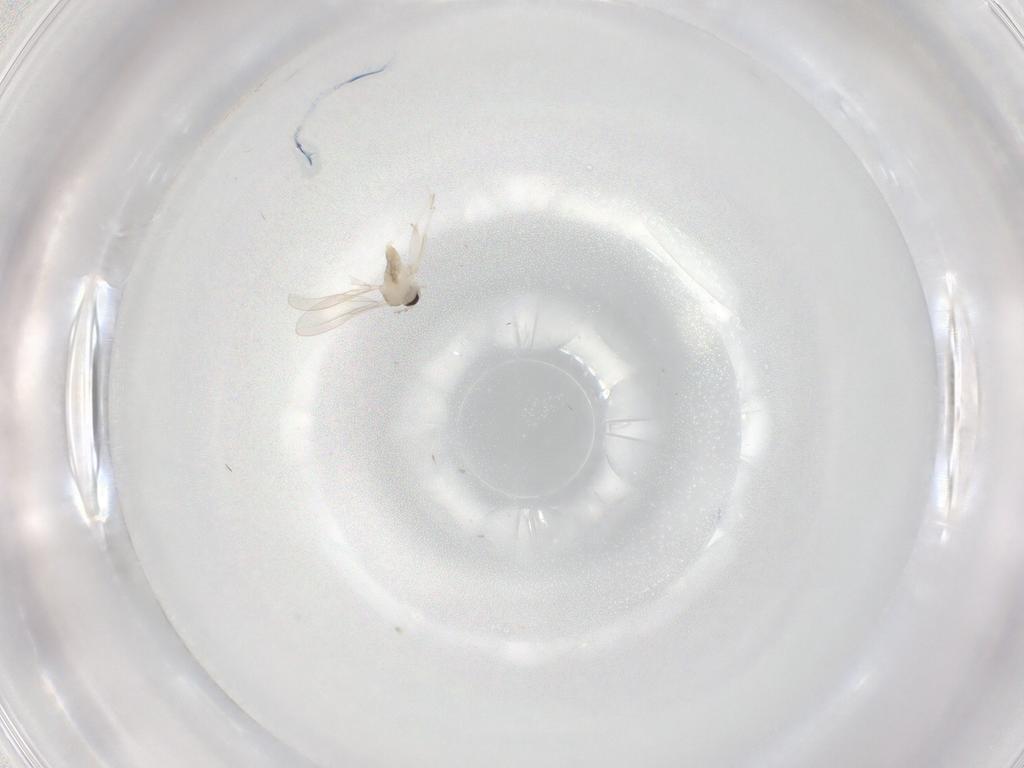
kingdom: Animalia
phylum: Arthropoda
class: Insecta
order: Diptera
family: Cecidomyiidae
